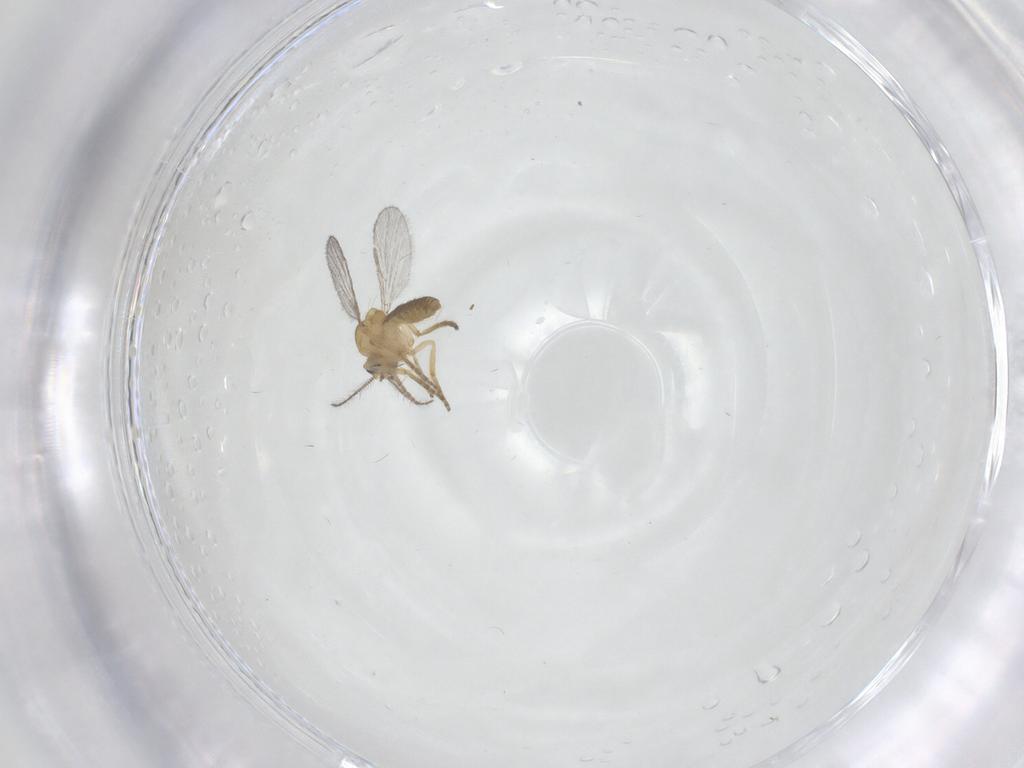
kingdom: Animalia
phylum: Arthropoda
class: Insecta
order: Diptera
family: Ceratopogonidae
